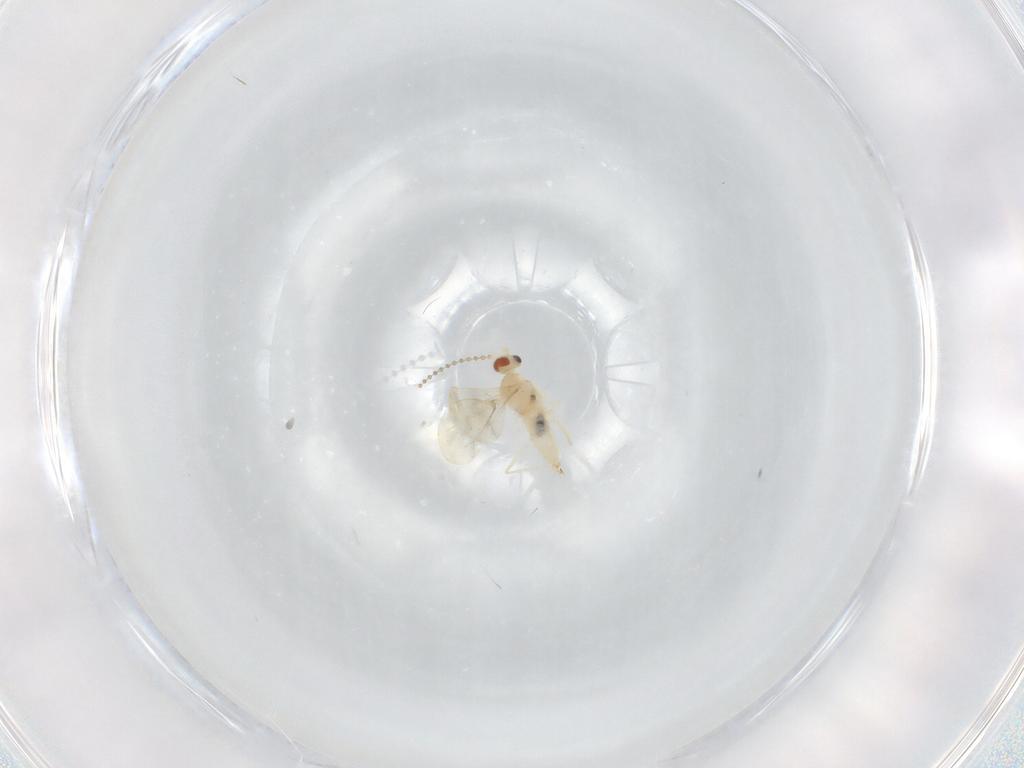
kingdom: Animalia
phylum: Arthropoda
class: Insecta
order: Diptera
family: Cecidomyiidae
